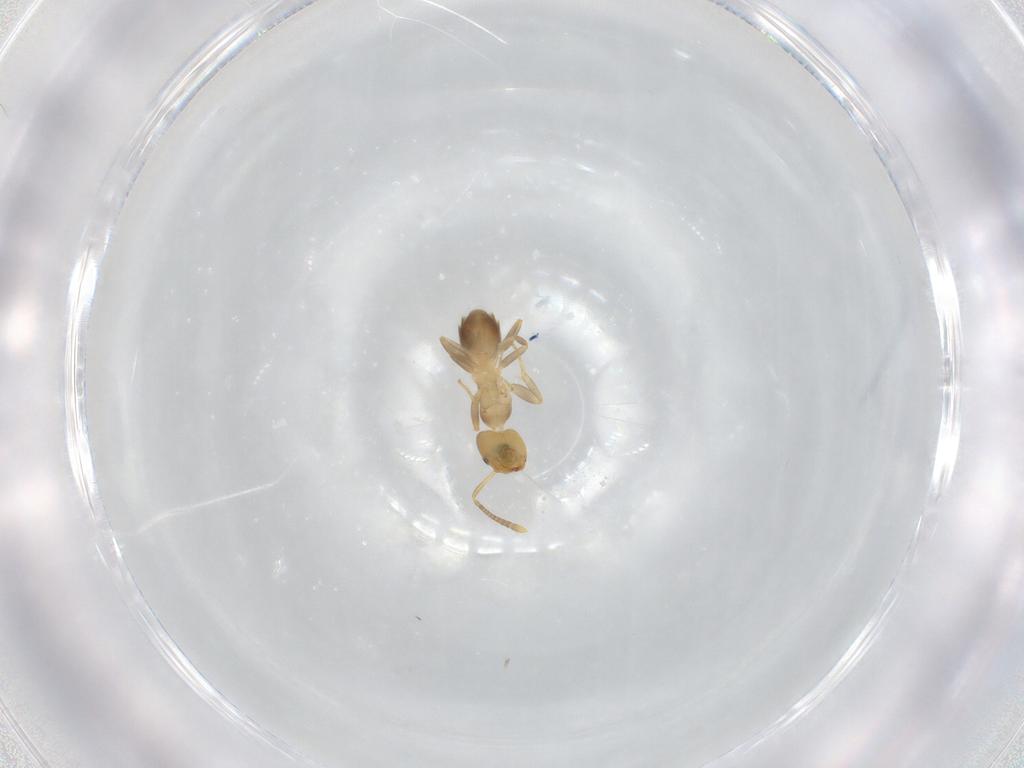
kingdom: Animalia
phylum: Arthropoda
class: Insecta
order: Hymenoptera
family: Formicidae
